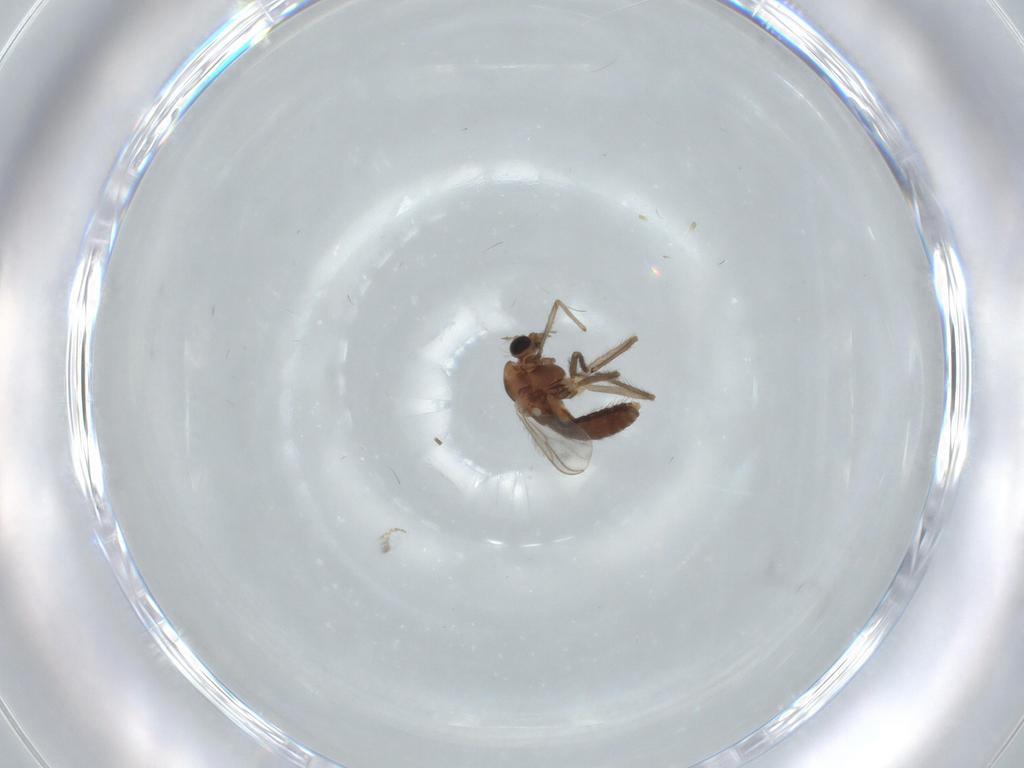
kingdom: Animalia
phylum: Arthropoda
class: Insecta
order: Diptera
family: Chironomidae
